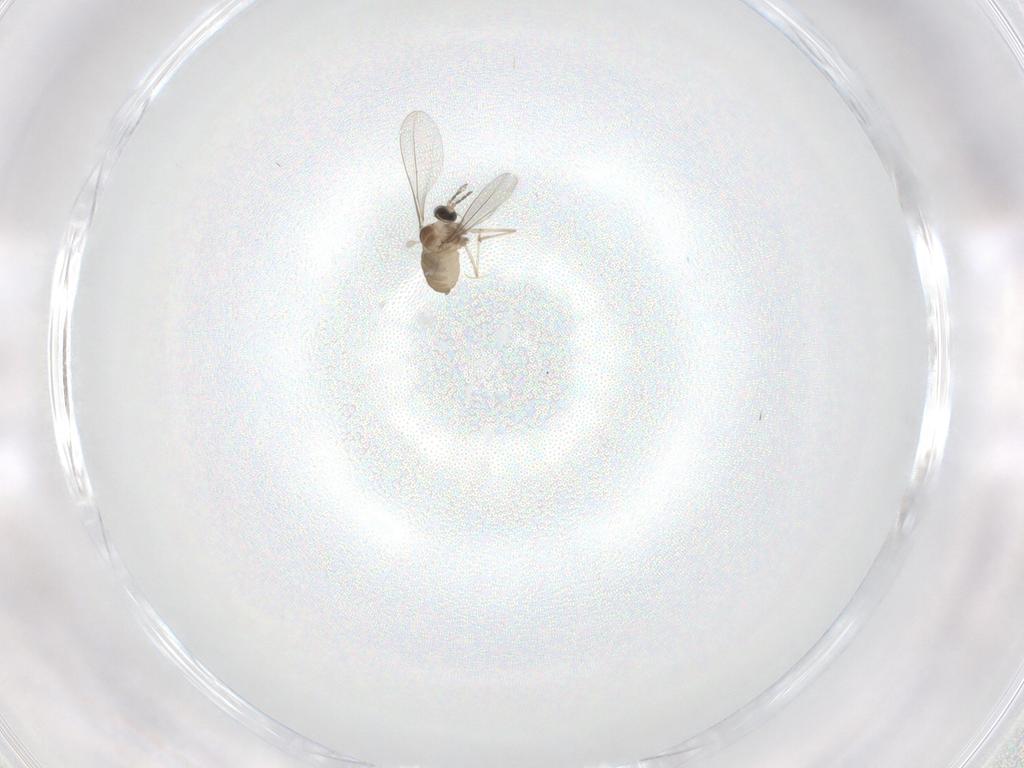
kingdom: Animalia
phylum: Arthropoda
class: Insecta
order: Diptera
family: Cecidomyiidae
